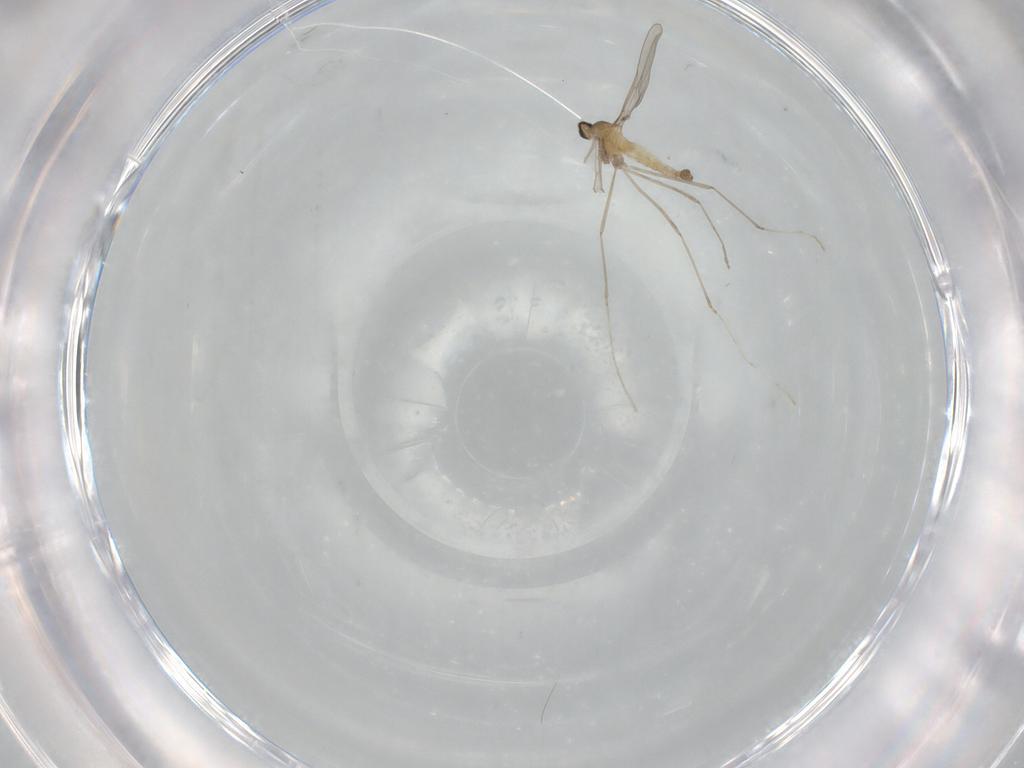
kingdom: Animalia
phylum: Arthropoda
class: Insecta
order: Diptera
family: Cecidomyiidae
